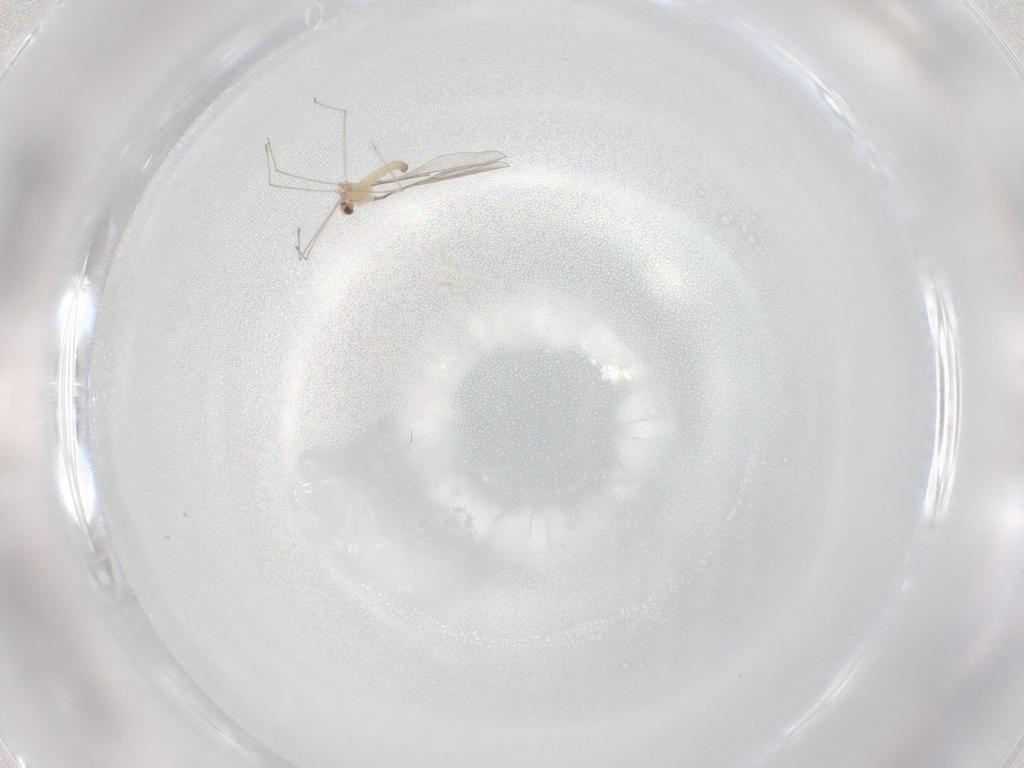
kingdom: Animalia
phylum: Arthropoda
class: Insecta
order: Diptera
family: Cecidomyiidae
